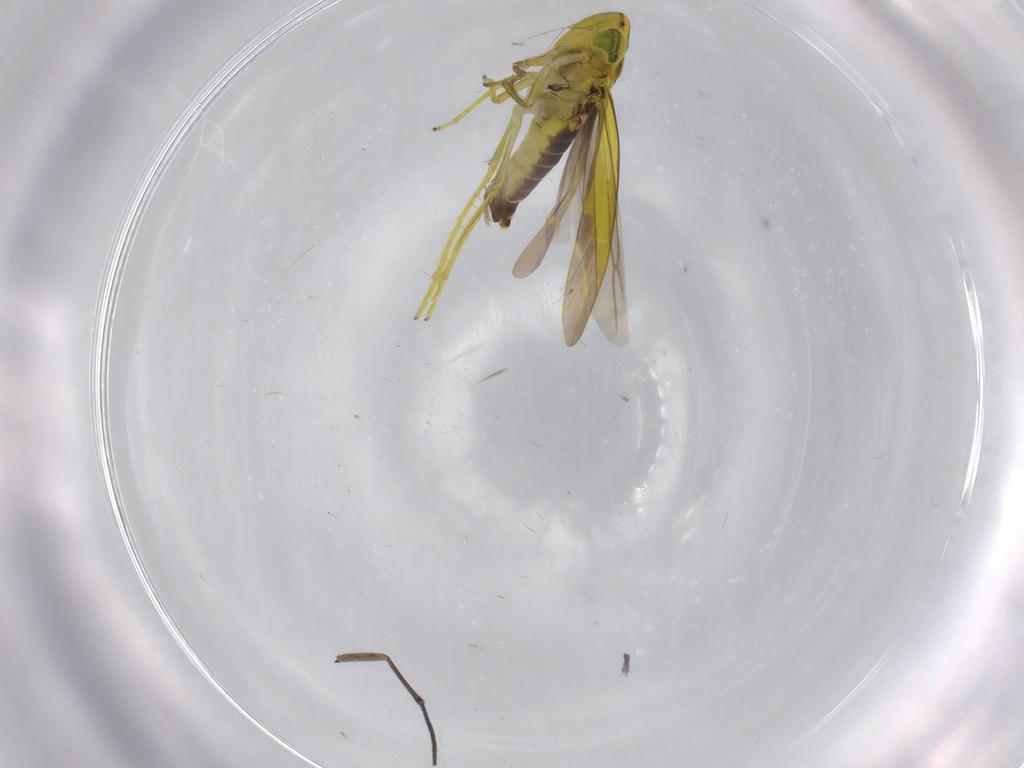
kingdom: Animalia
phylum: Arthropoda
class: Insecta
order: Hemiptera
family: Cicadellidae
